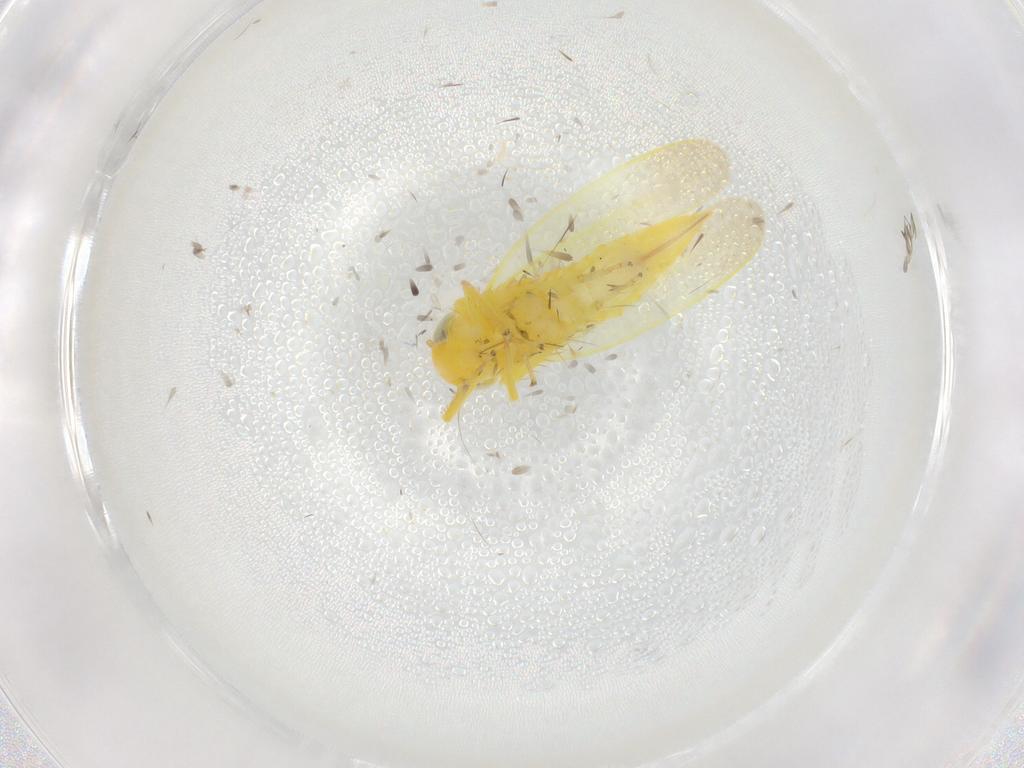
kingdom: Animalia
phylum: Arthropoda
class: Insecta
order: Hemiptera
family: Cicadellidae
